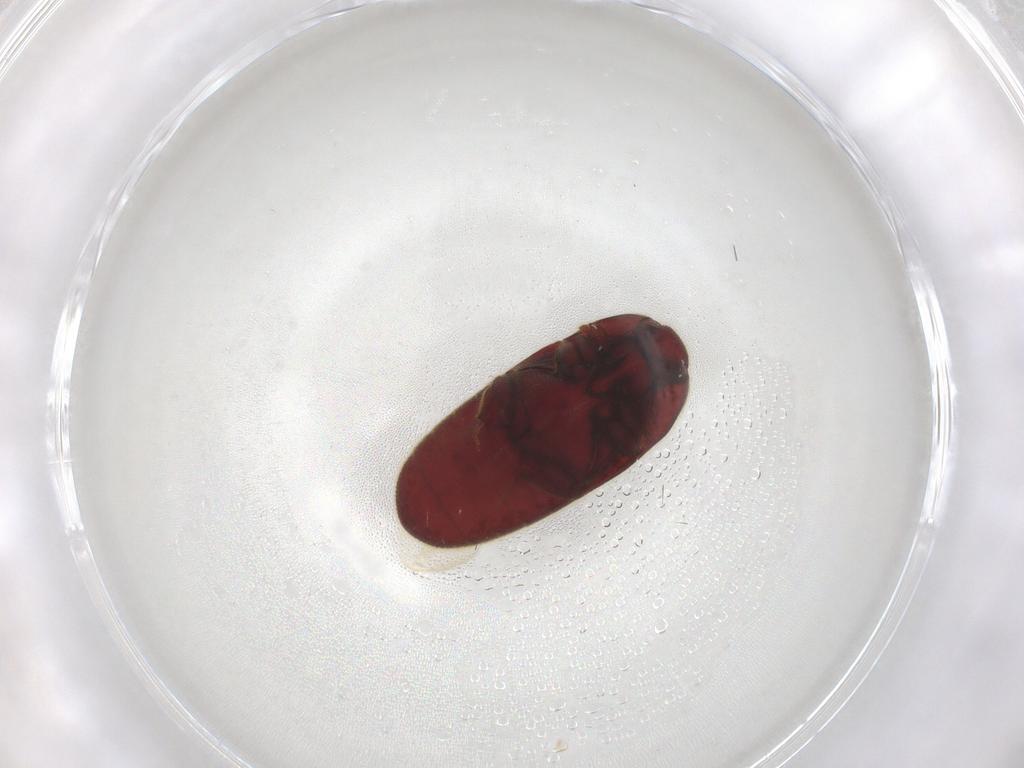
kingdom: Animalia
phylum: Arthropoda
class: Insecta
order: Coleoptera
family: Throscidae
